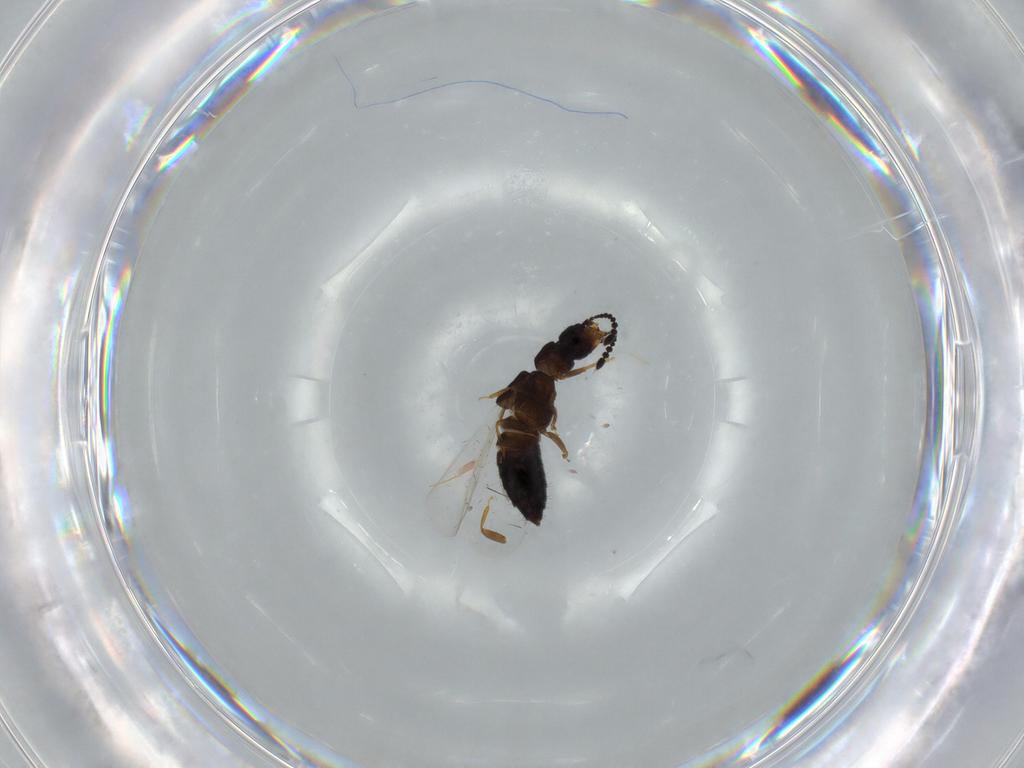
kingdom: Animalia
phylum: Arthropoda
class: Insecta
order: Coleoptera
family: Staphylinidae
